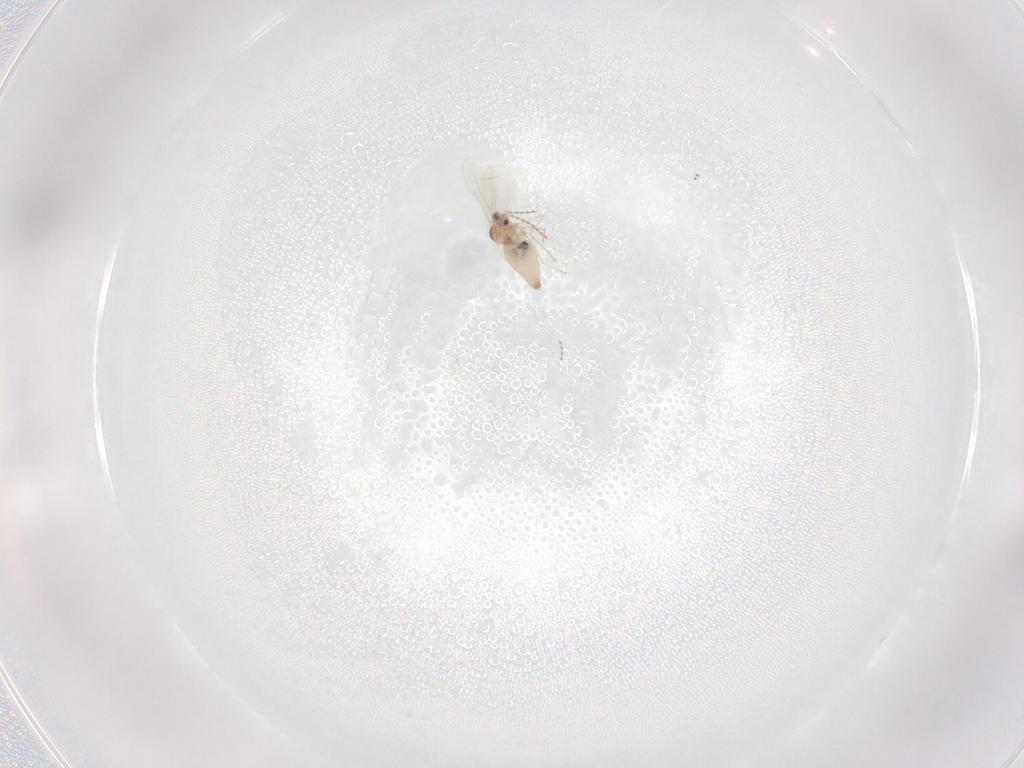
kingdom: Animalia
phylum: Arthropoda
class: Insecta
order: Diptera
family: Cecidomyiidae
